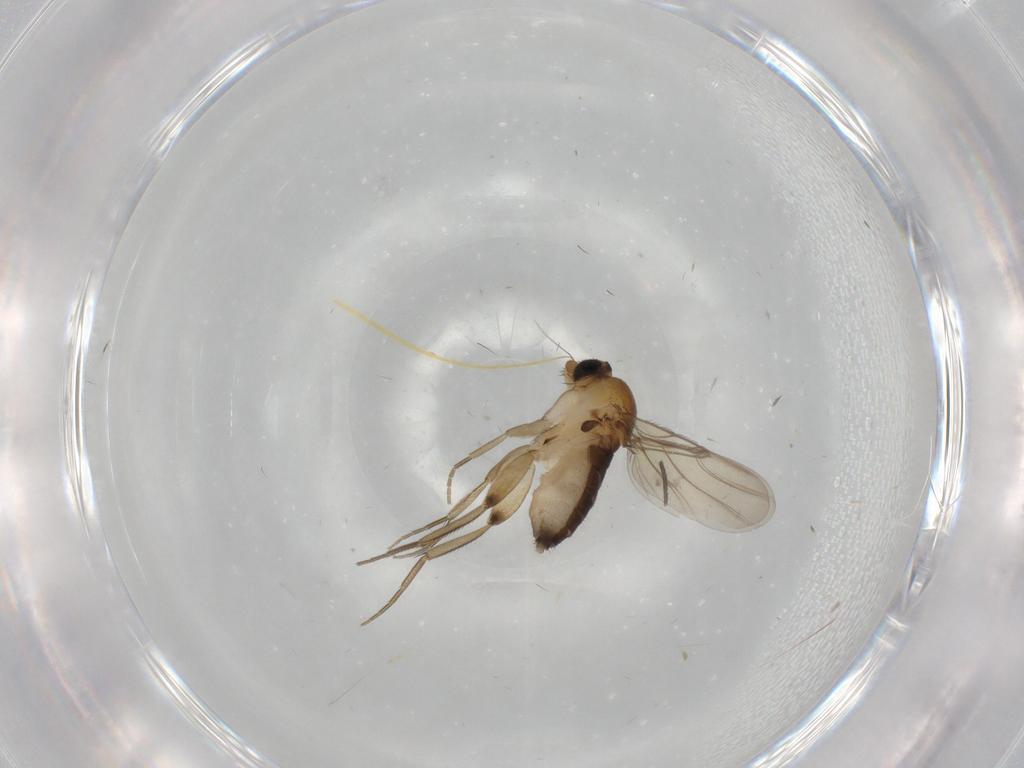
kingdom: Animalia
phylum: Arthropoda
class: Insecta
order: Diptera
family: Phoridae
